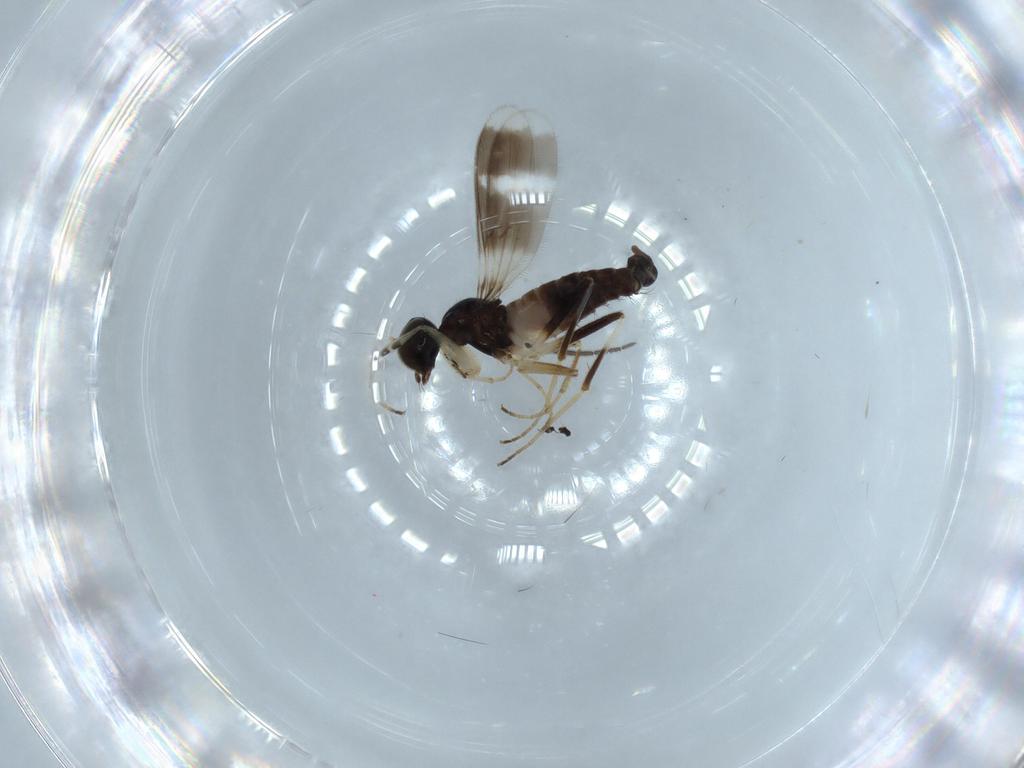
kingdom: Animalia
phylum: Arthropoda
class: Insecta
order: Diptera
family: Sciaridae
